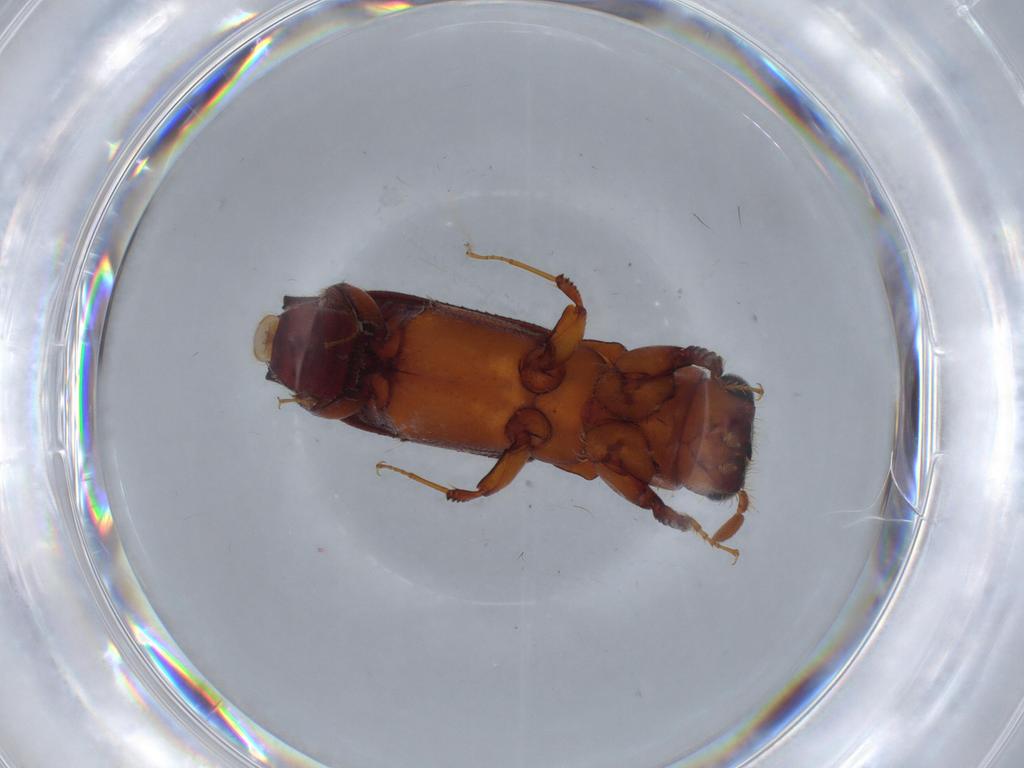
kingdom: Animalia
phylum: Arthropoda
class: Insecta
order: Coleoptera
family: Curculionidae
